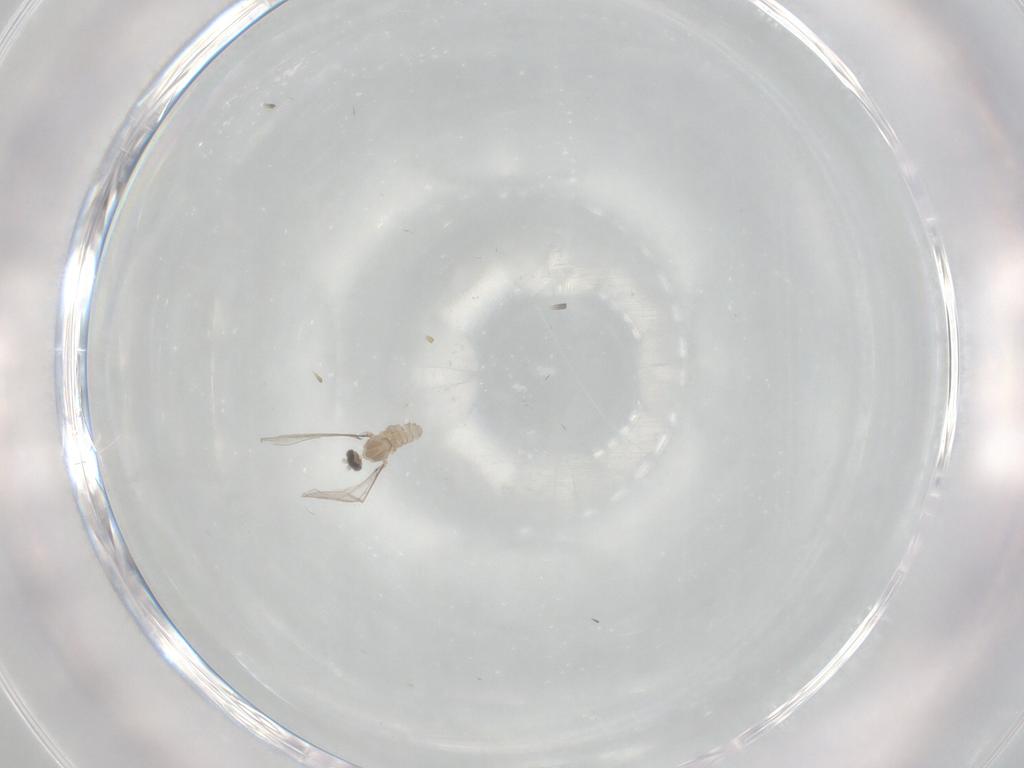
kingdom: Animalia
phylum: Arthropoda
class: Insecta
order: Diptera
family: Cecidomyiidae
